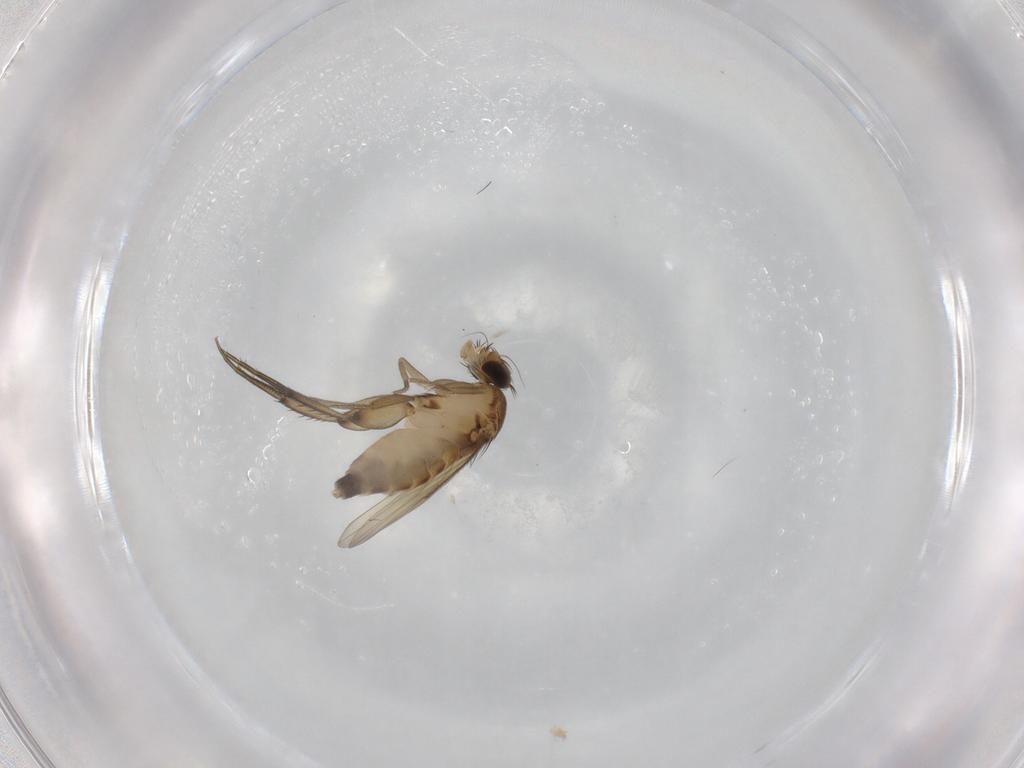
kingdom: Animalia
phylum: Arthropoda
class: Insecta
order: Diptera
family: Phoridae
